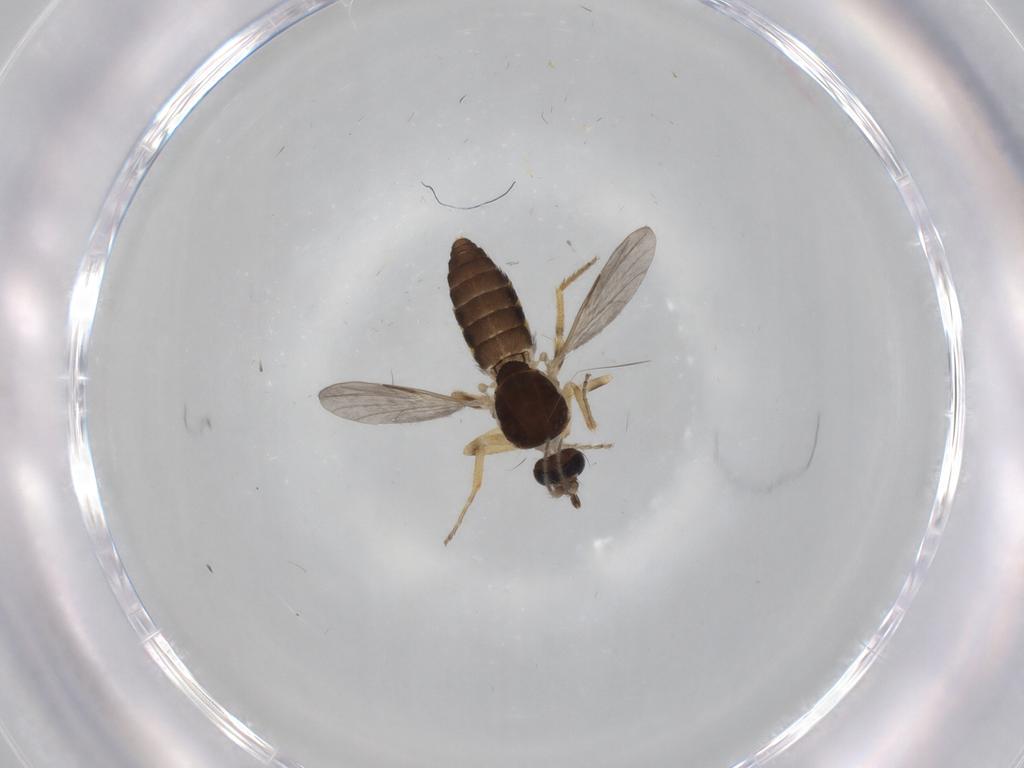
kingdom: Animalia
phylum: Arthropoda
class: Insecta
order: Diptera
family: Ceratopogonidae
